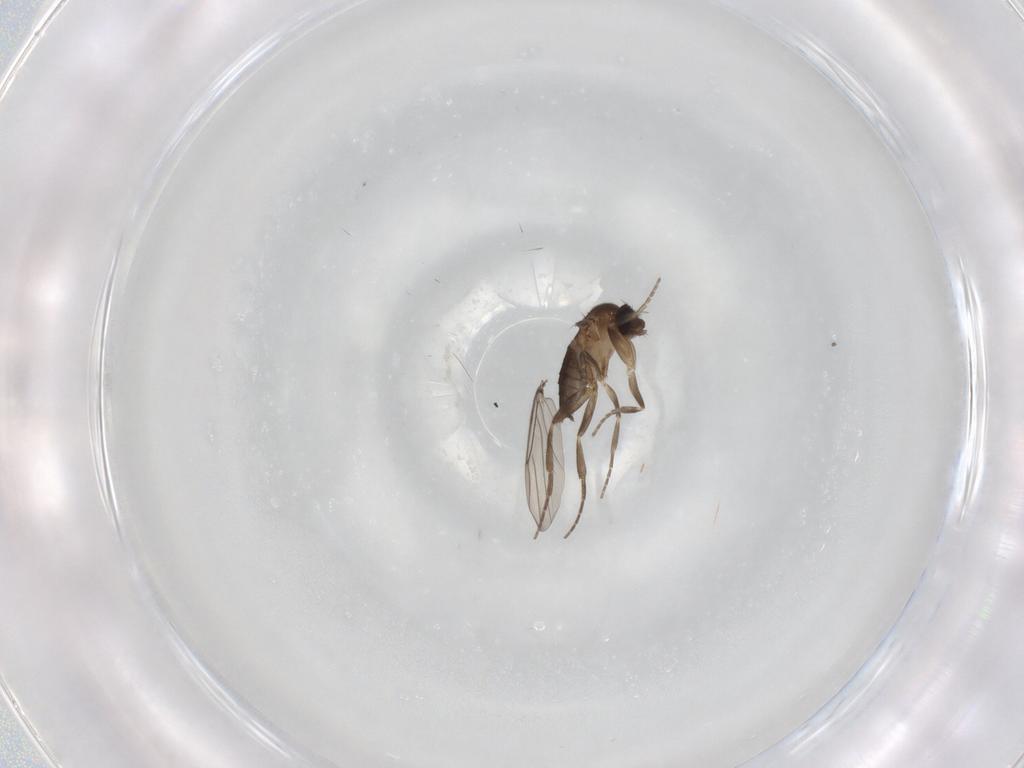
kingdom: Animalia
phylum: Arthropoda
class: Insecta
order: Diptera
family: Phoridae
